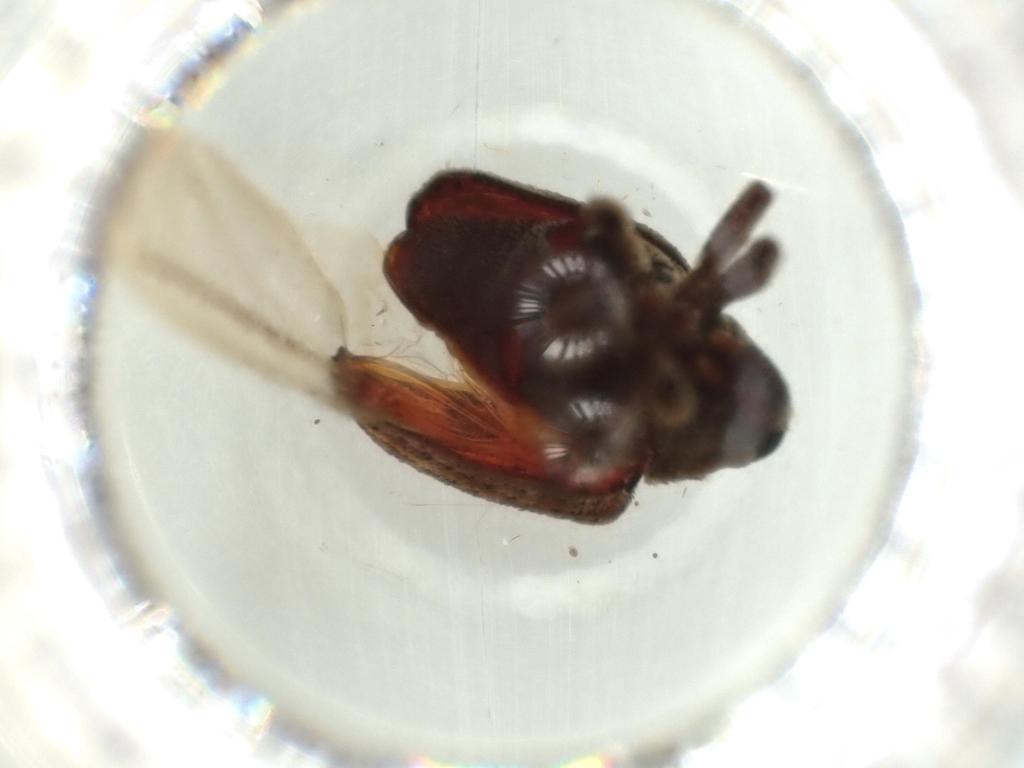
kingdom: Animalia
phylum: Arthropoda
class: Insecta
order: Coleoptera
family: Chrysomelidae
